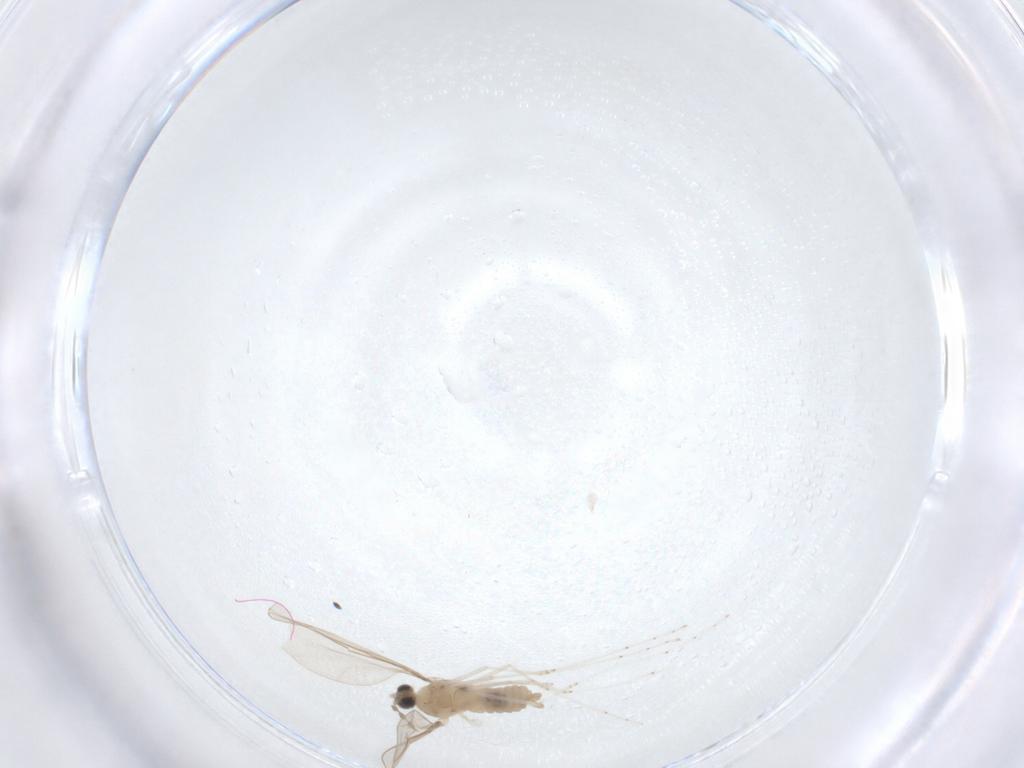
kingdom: Animalia
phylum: Arthropoda
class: Insecta
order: Diptera
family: Cecidomyiidae
